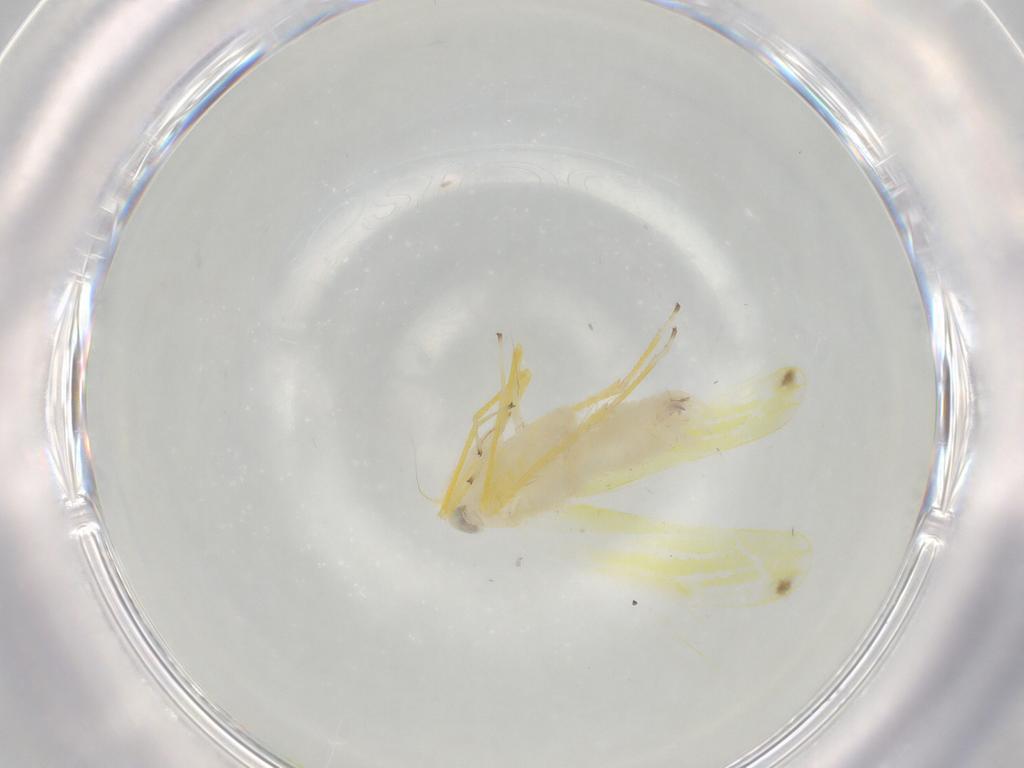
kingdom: Animalia
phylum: Arthropoda
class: Insecta
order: Hemiptera
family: Cicadellidae
